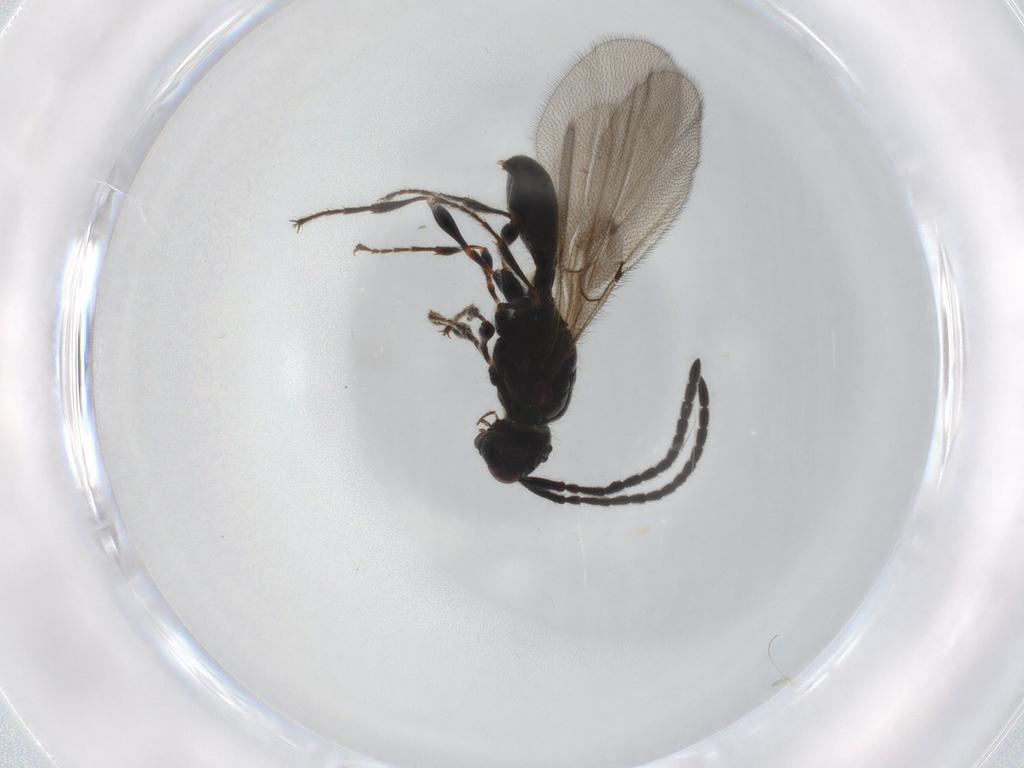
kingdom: Animalia
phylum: Arthropoda
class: Insecta
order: Hymenoptera
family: Diapriidae
